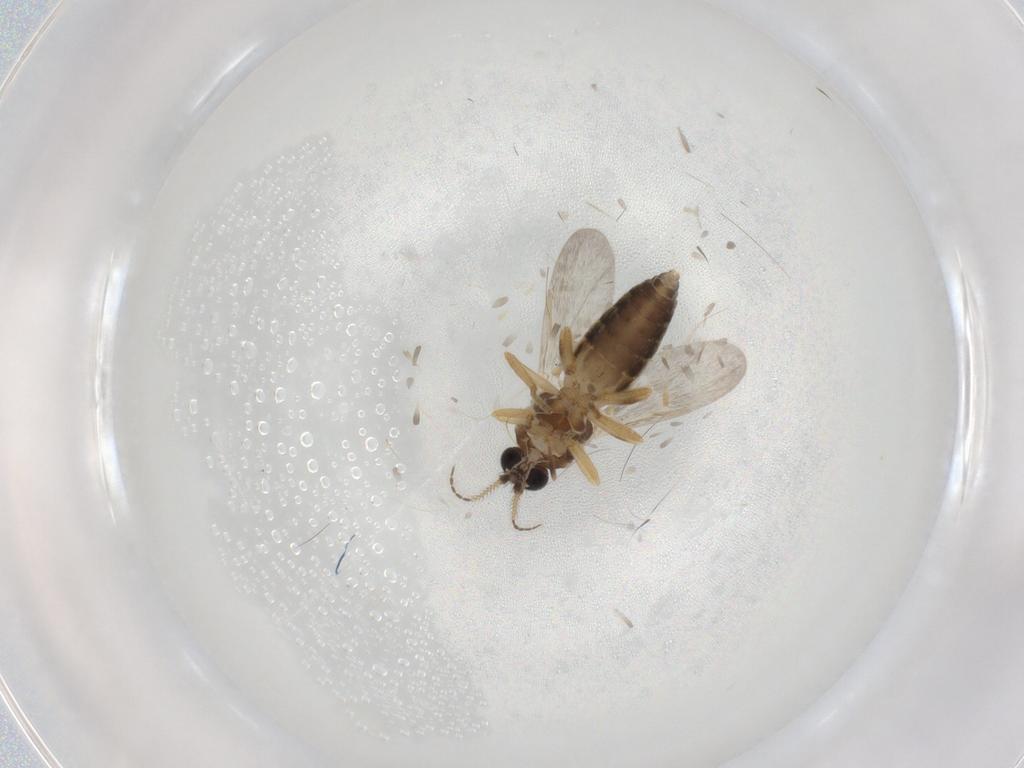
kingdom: Animalia
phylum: Arthropoda
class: Insecta
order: Diptera
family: Ceratopogonidae
